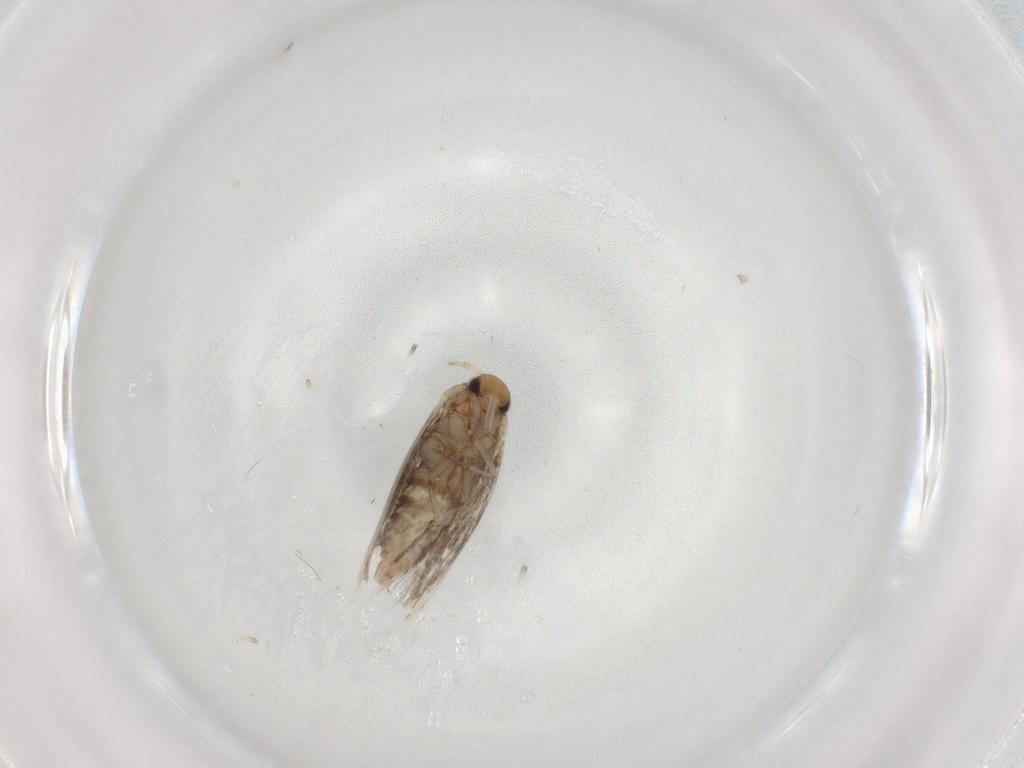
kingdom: Animalia
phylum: Arthropoda
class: Insecta
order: Lepidoptera
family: Lyonetiidae
